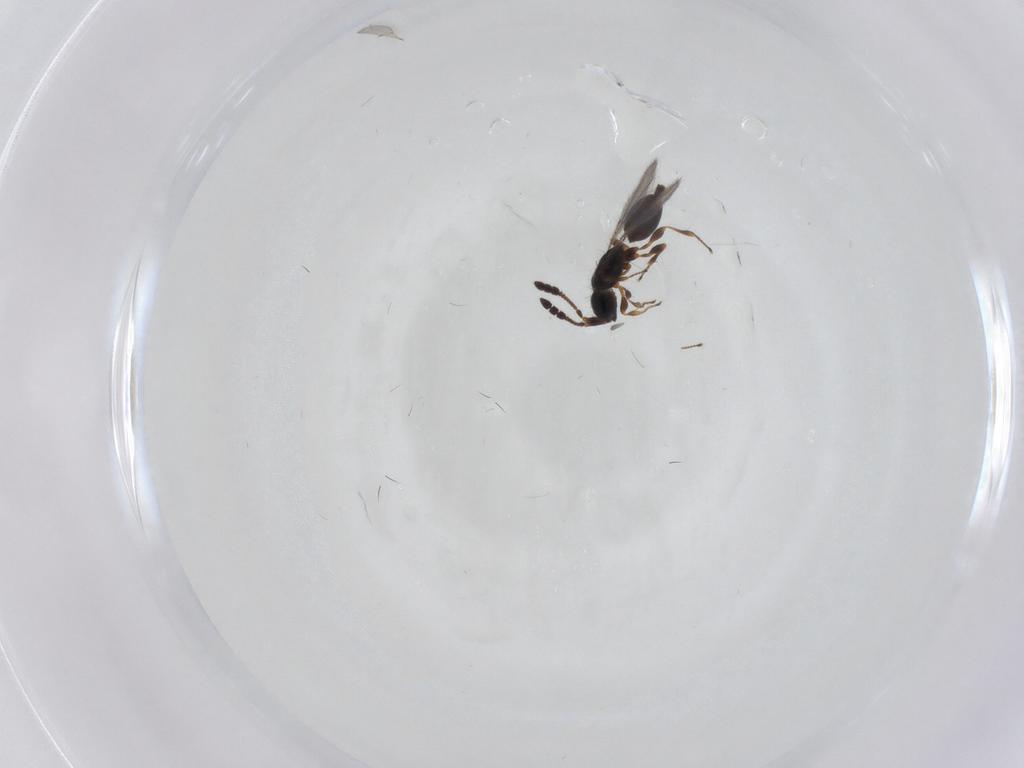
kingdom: Animalia
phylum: Arthropoda
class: Insecta
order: Hymenoptera
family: Diapriidae
